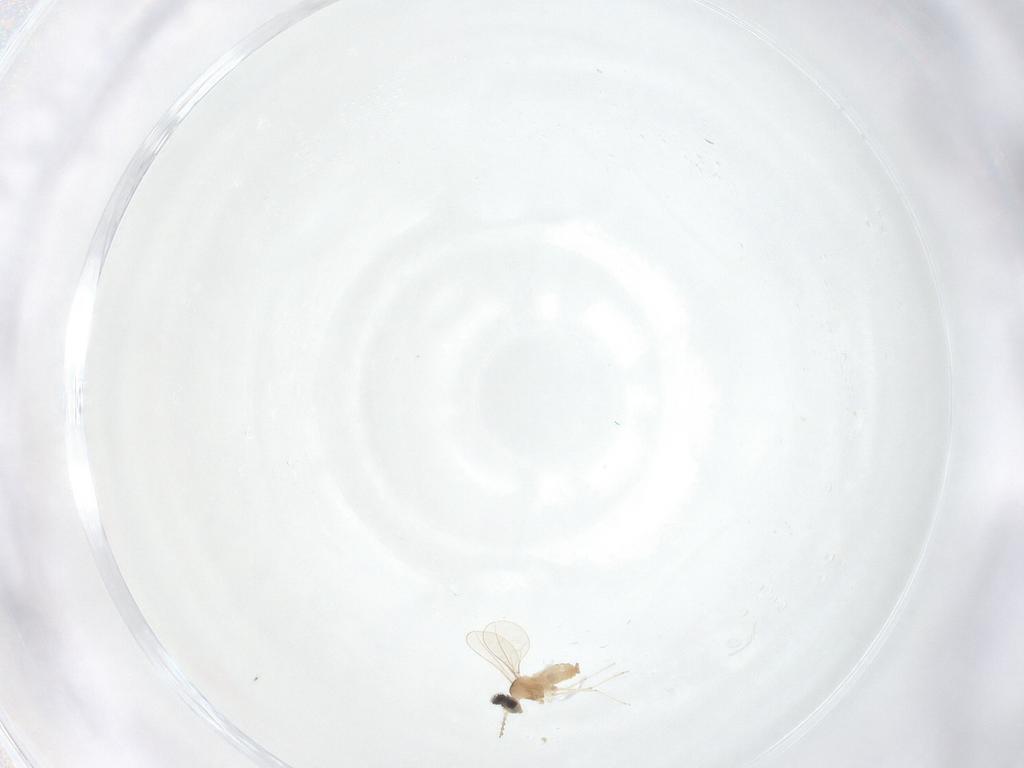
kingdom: Animalia
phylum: Arthropoda
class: Insecta
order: Diptera
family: Cecidomyiidae
